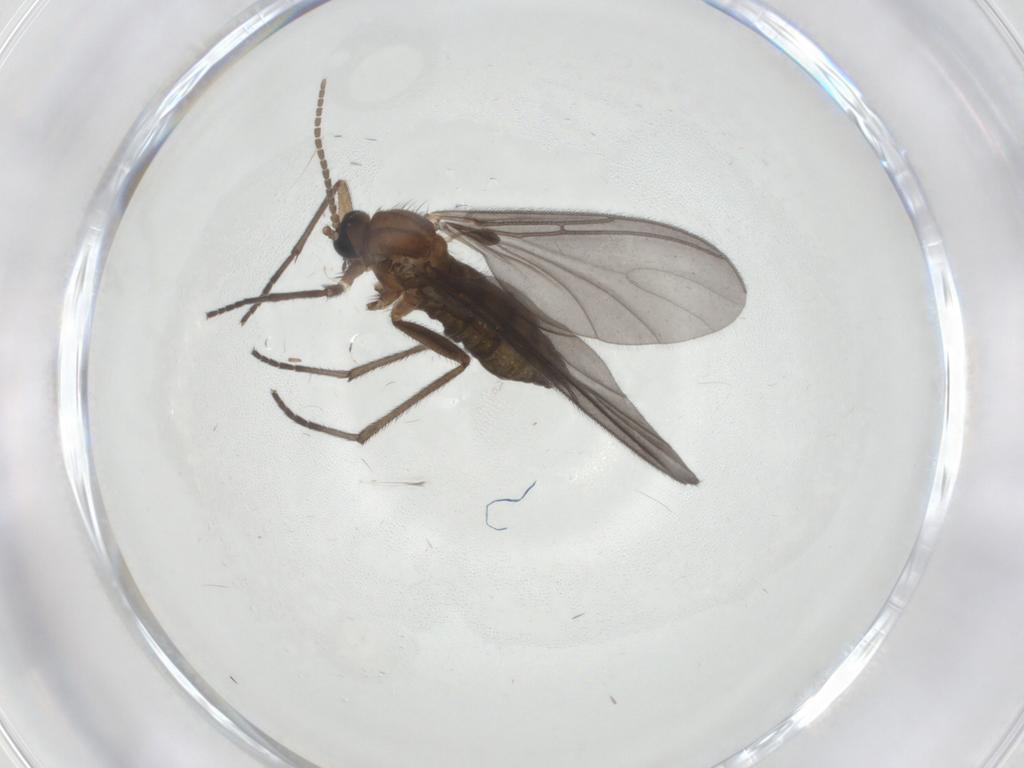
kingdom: Animalia
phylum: Arthropoda
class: Insecta
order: Diptera
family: Cecidomyiidae
